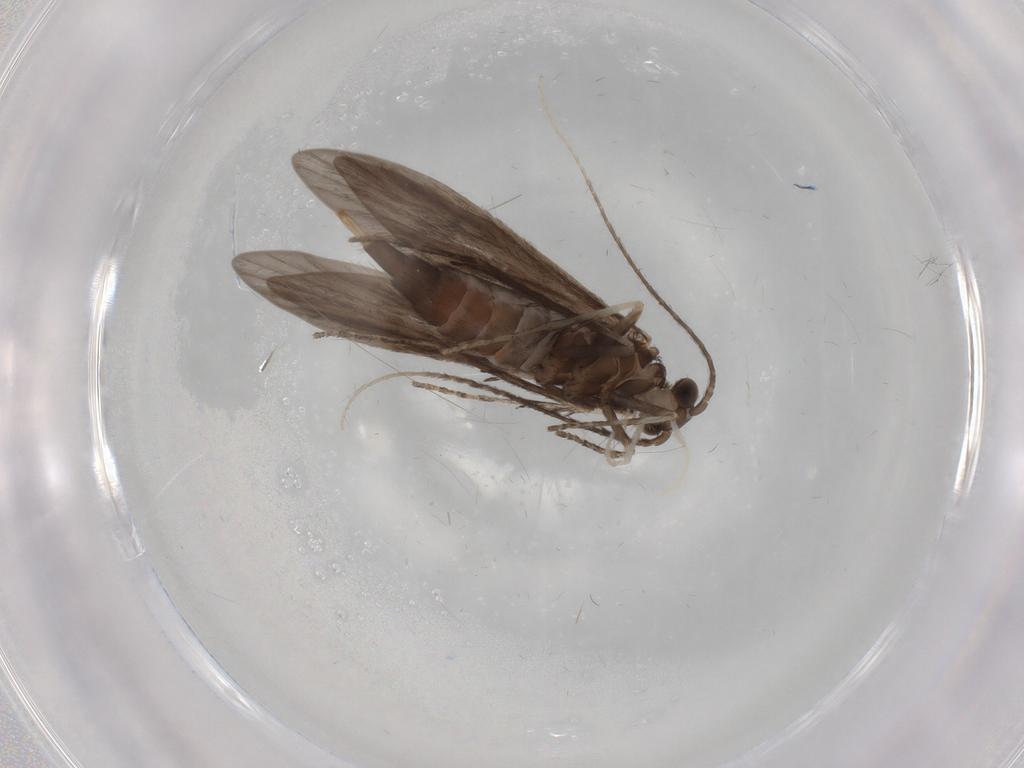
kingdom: Animalia
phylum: Arthropoda
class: Insecta
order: Trichoptera
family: Xiphocentronidae
